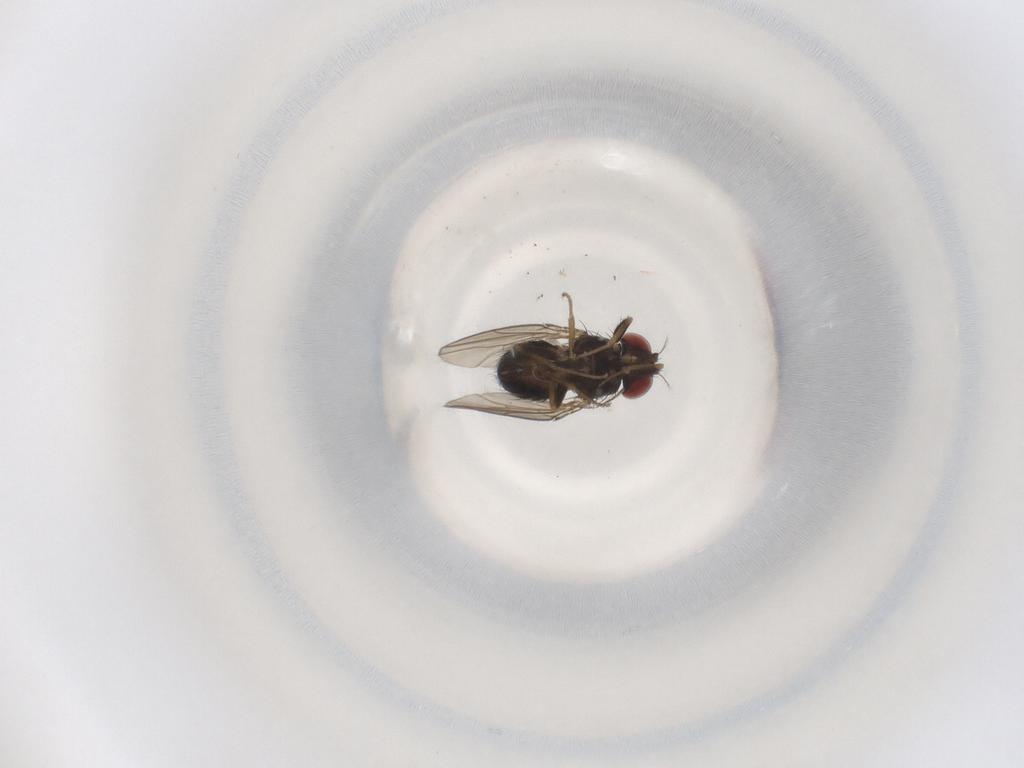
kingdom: Animalia
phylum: Arthropoda
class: Insecta
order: Diptera
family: Drosophilidae
